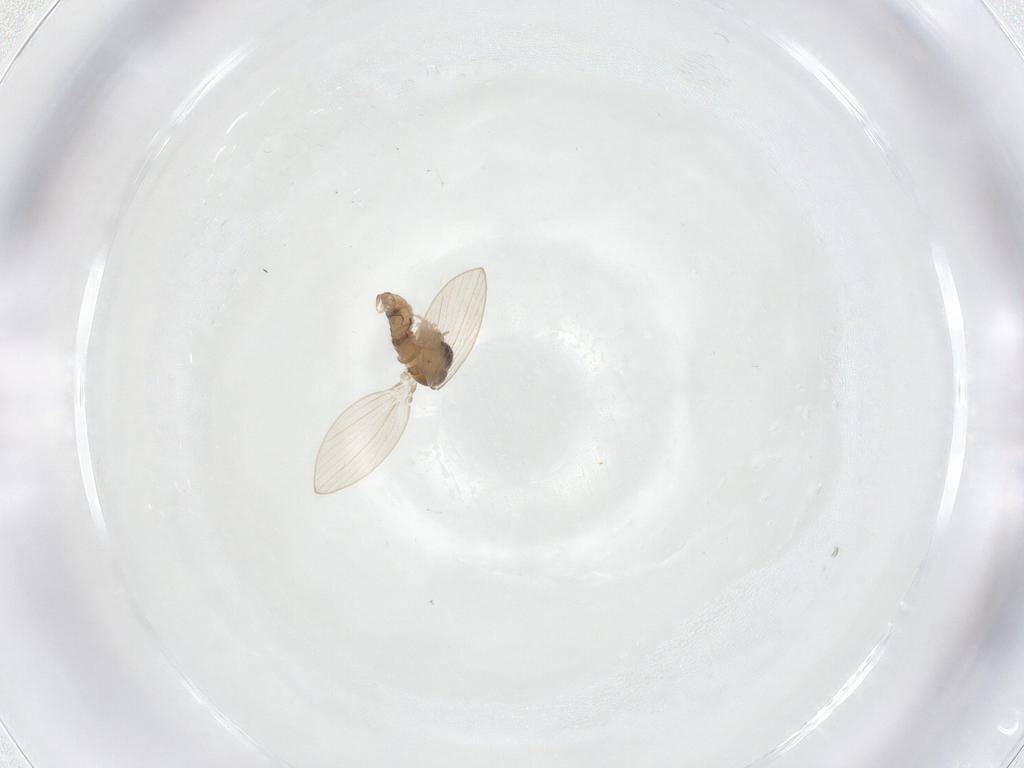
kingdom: Animalia
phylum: Arthropoda
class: Insecta
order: Diptera
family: Psychodidae
